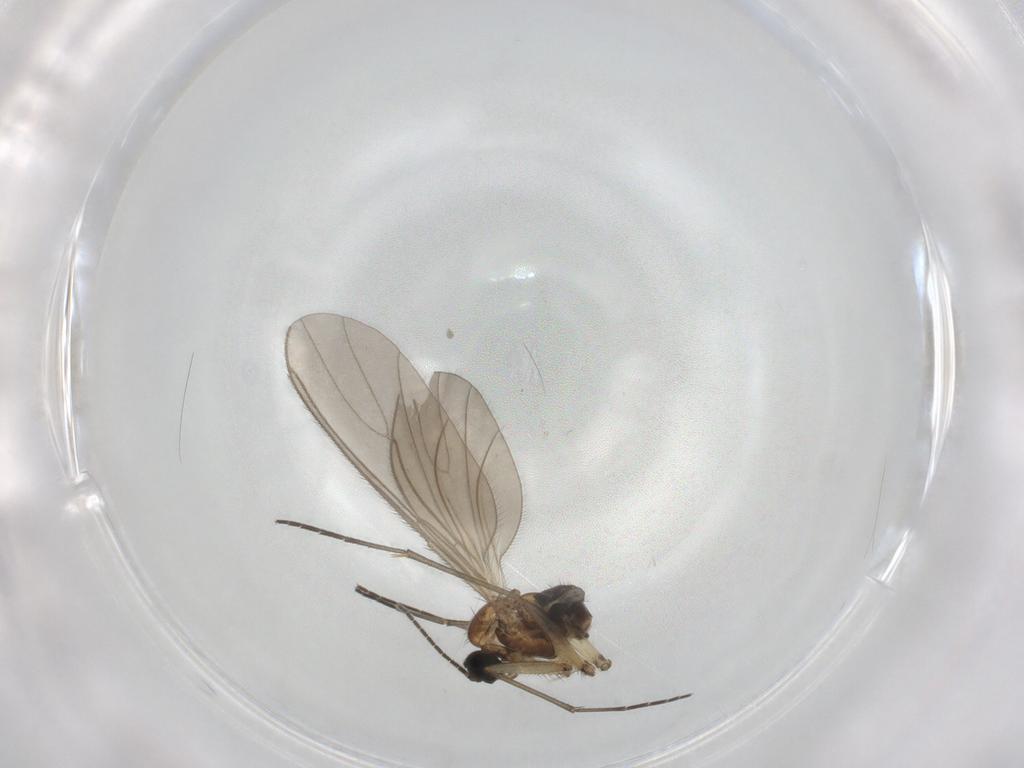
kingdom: Animalia
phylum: Arthropoda
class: Insecta
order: Diptera
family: Sciaridae
